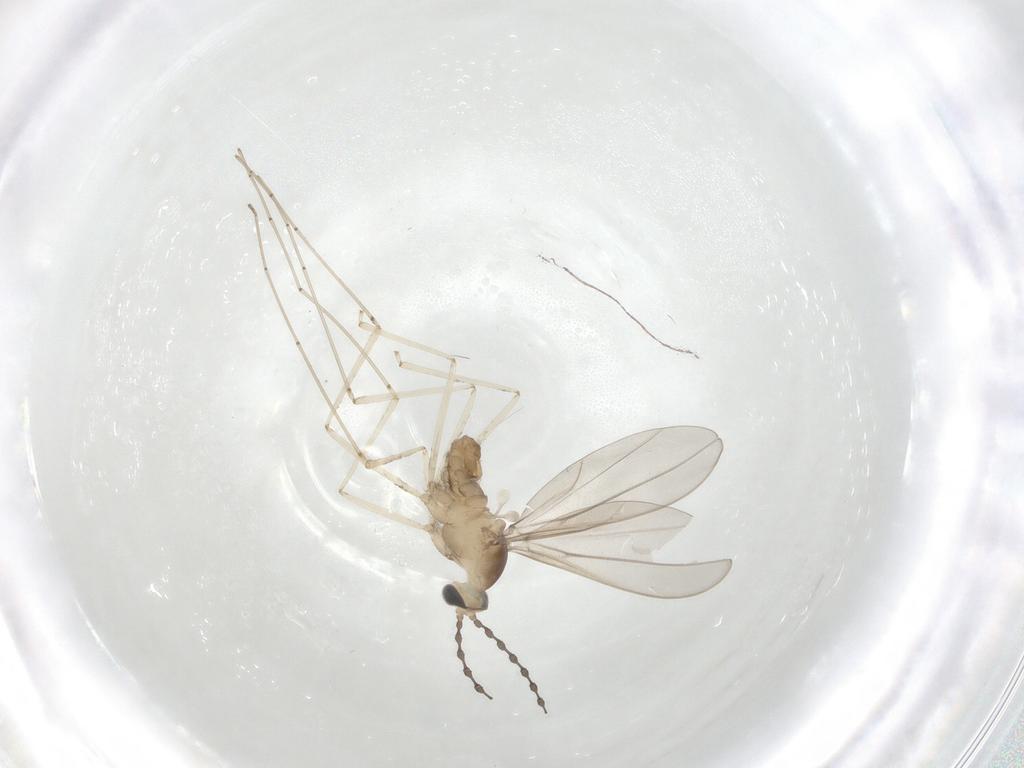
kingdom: Animalia
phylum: Arthropoda
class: Insecta
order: Diptera
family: Cecidomyiidae
